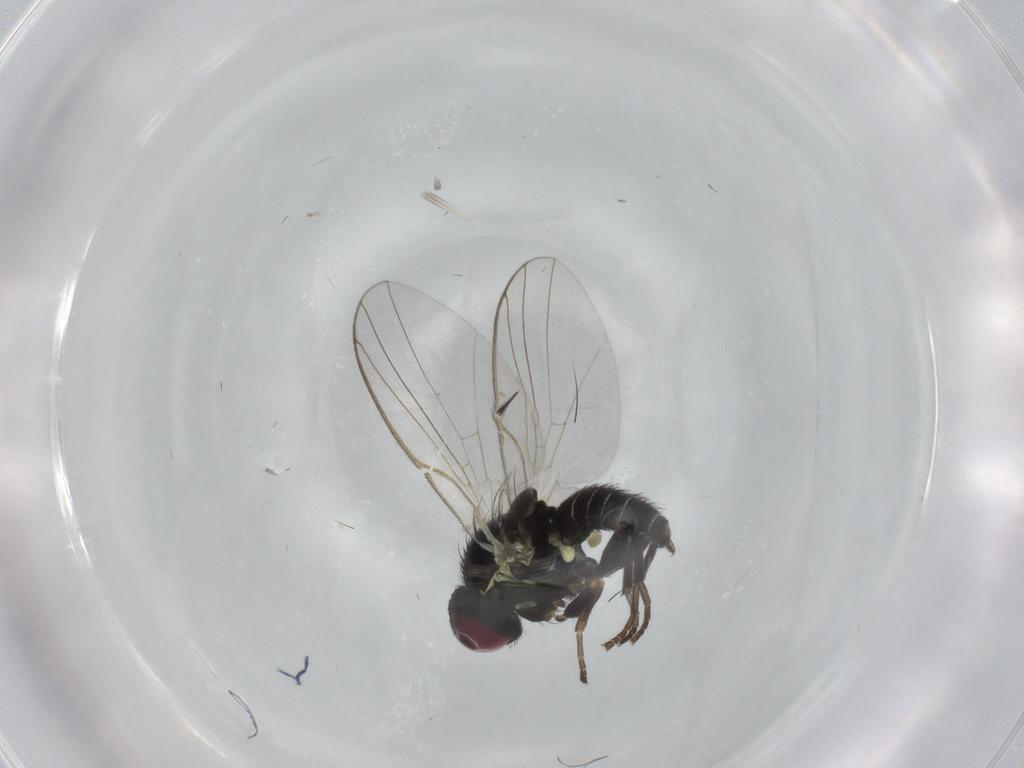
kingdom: Animalia
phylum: Arthropoda
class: Insecta
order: Diptera
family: Agromyzidae
